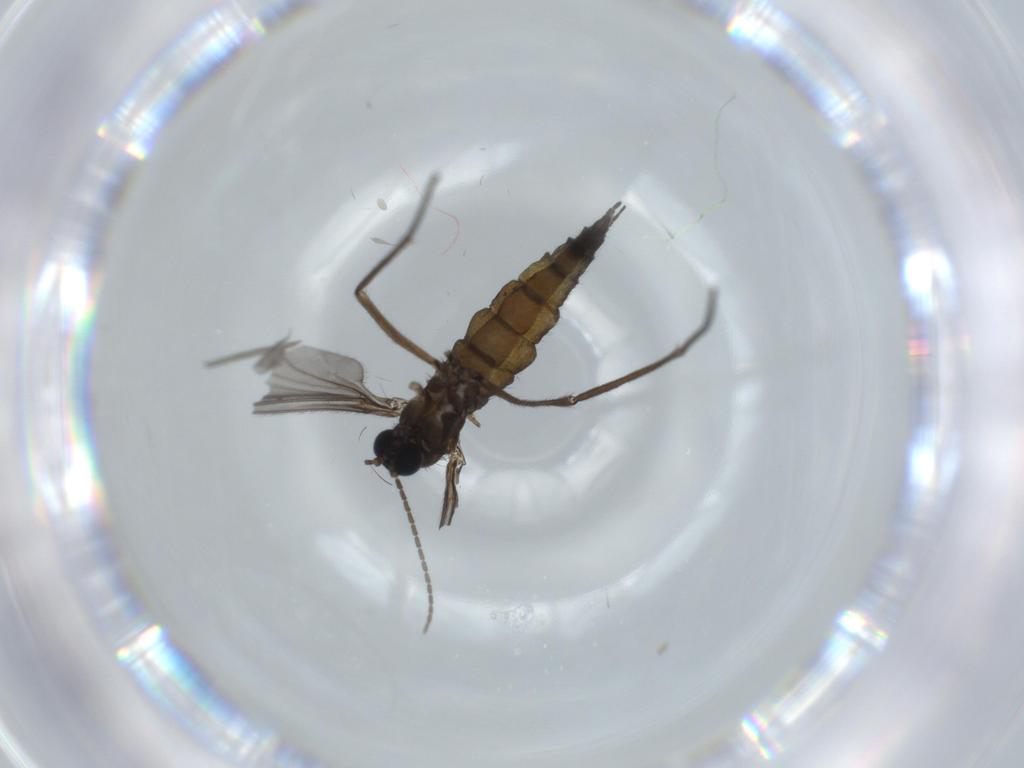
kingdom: Animalia
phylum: Arthropoda
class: Insecta
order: Diptera
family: Sciaridae
